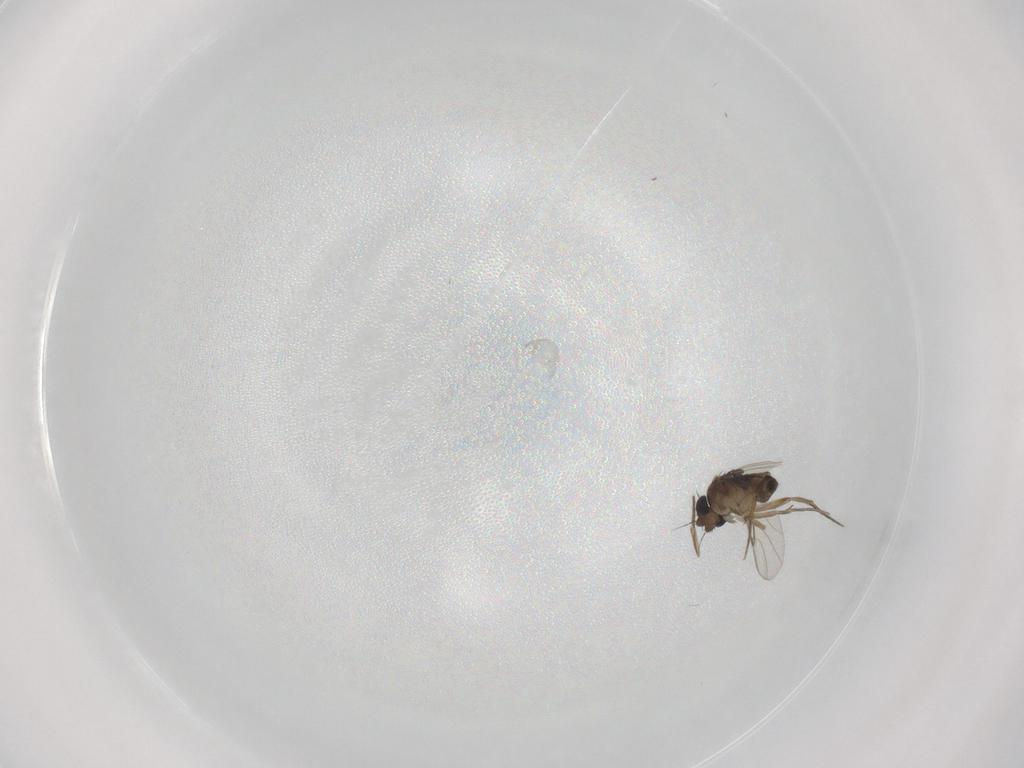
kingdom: Animalia
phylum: Arthropoda
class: Insecta
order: Diptera
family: Phoridae
